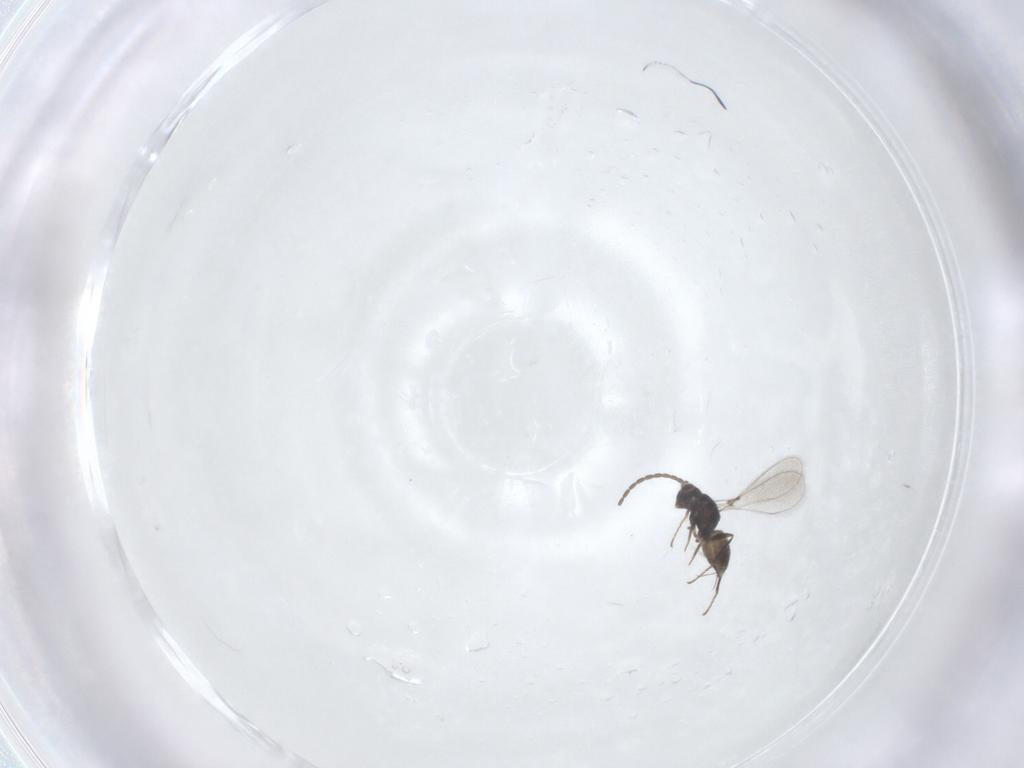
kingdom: Animalia
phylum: Arthropoda
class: Insecta
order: Hymenoptera
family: Mymaridae
